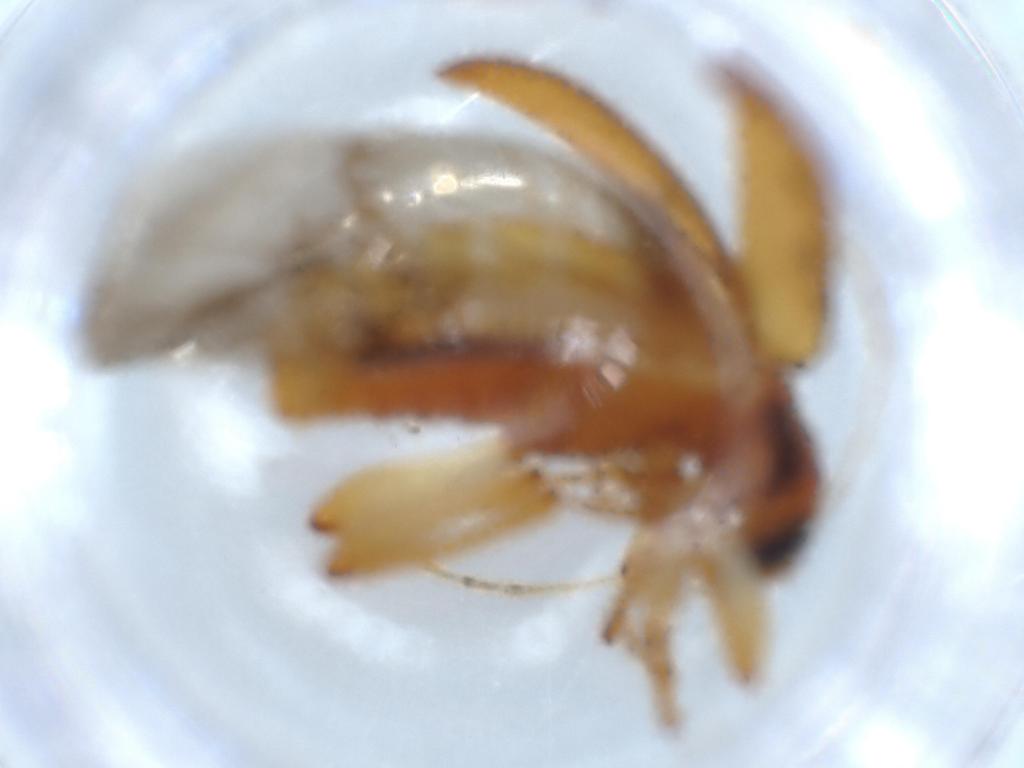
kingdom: Animalia
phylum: Arthropoda
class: Insecta
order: Coleoptera
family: Chrysomelidae
